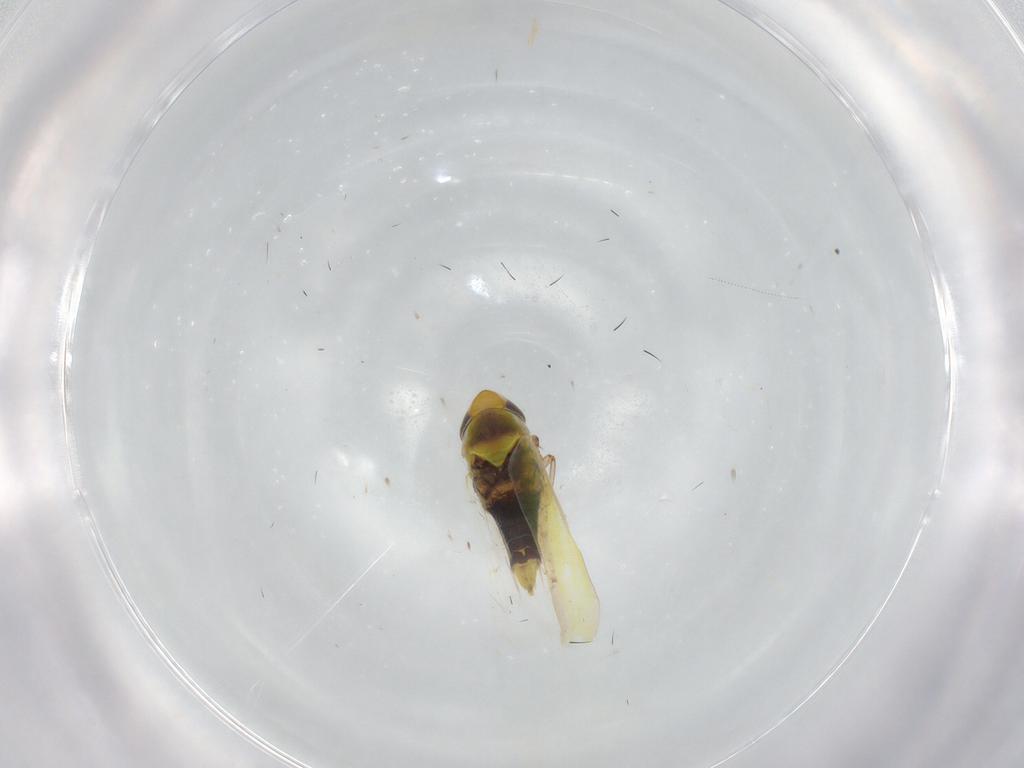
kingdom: Animalia
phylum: Arthropoda
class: Insecta
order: Hemiptera
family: Cicadellidae
